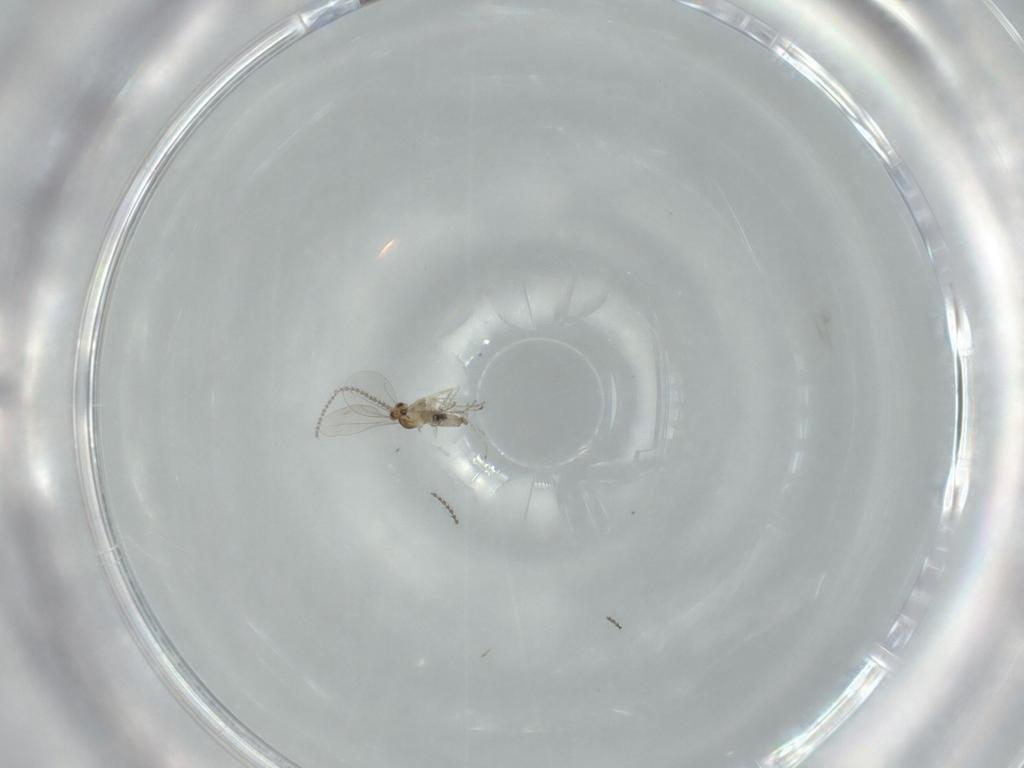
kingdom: Animalia
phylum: Arthropoda
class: Insecta
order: Diptera
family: Cecidomyiidae
